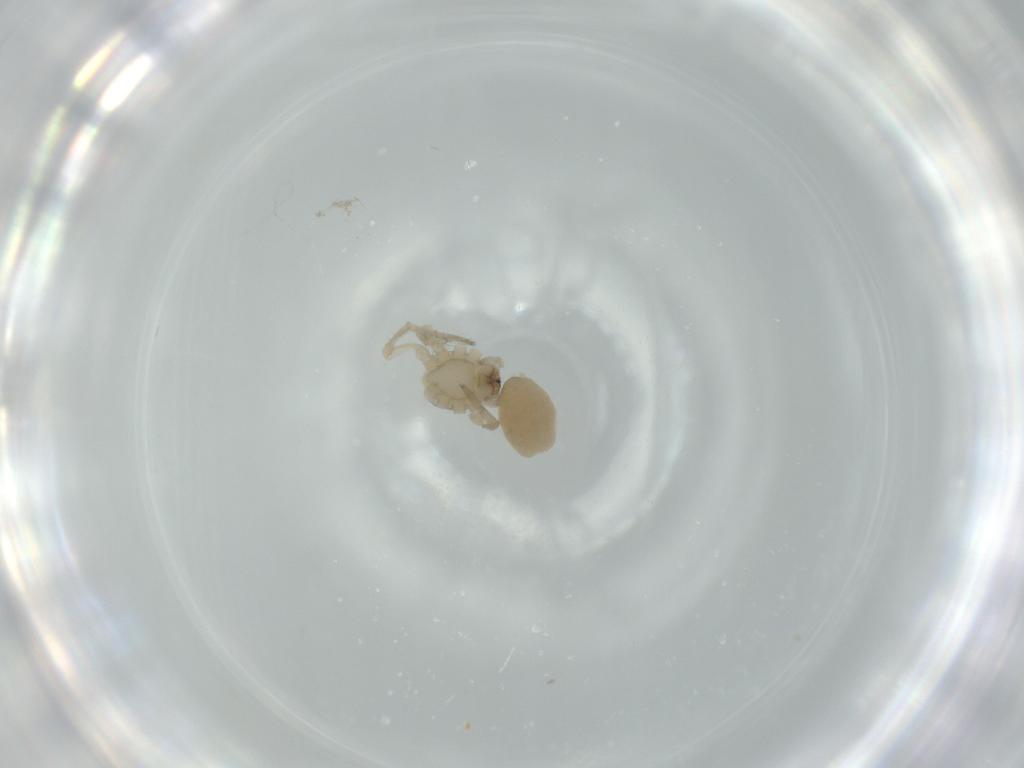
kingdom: Animalia
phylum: Arthropoda
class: Arachnida
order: Araneae
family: Amaurobiidae
